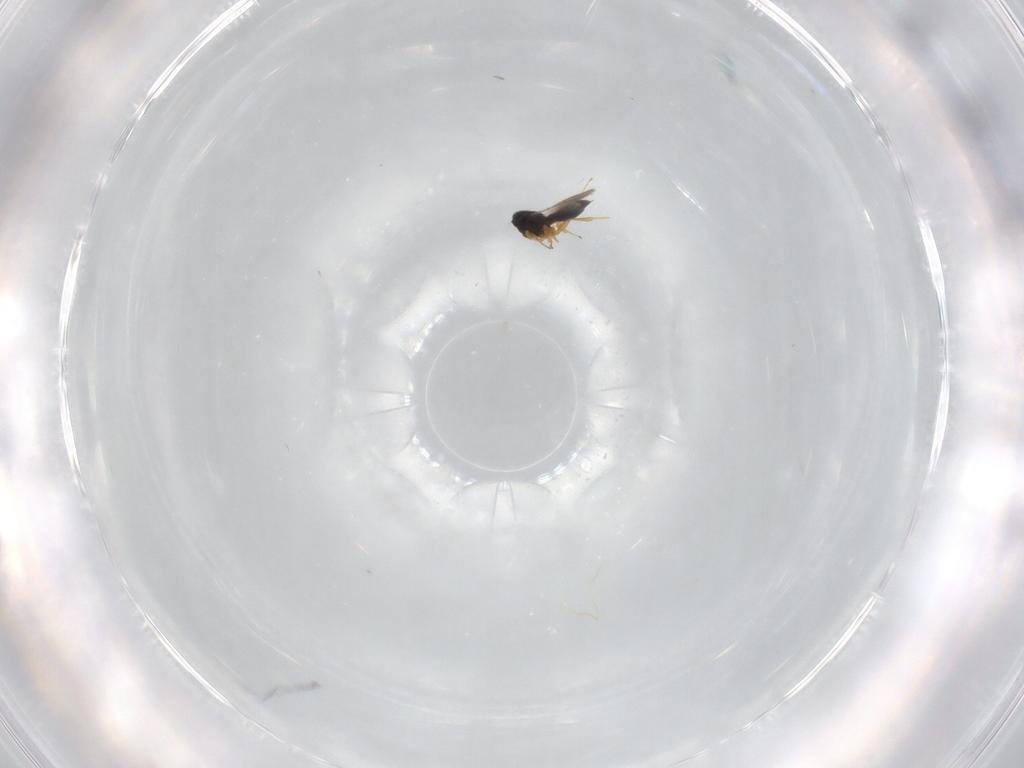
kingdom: Animalia
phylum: Arthropoda
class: Insecta
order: Hymenoptera
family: Scelionidae
